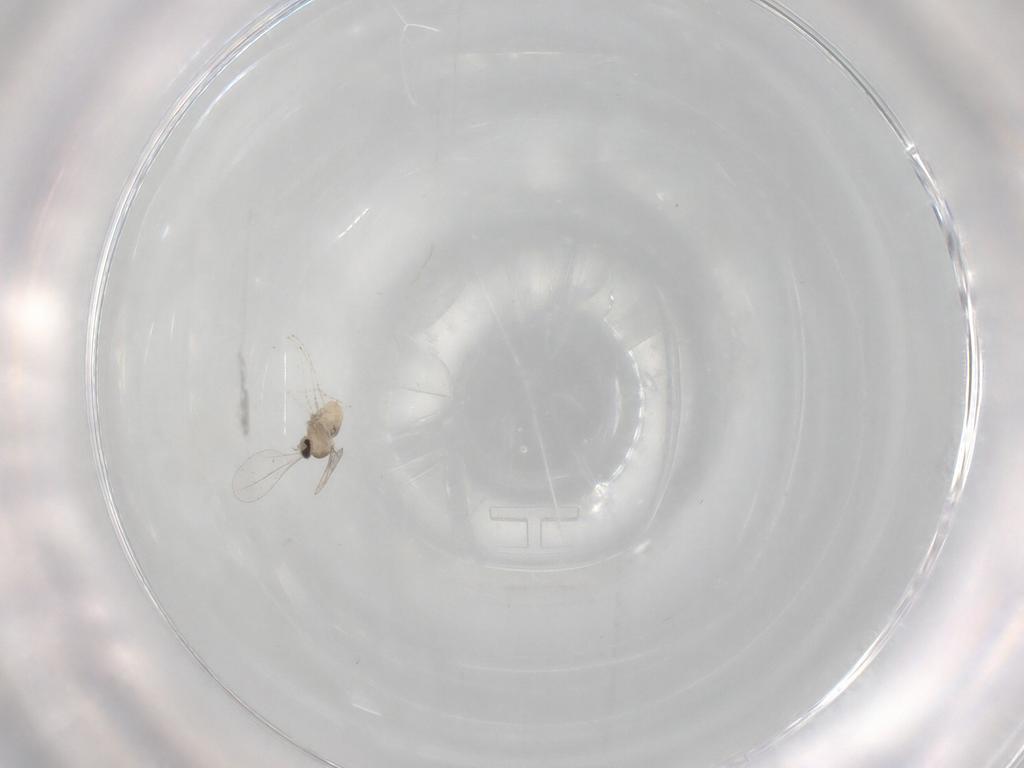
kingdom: Animalia
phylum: Arthropoda
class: Insecta
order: Diptera
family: Cecidomyiidae
